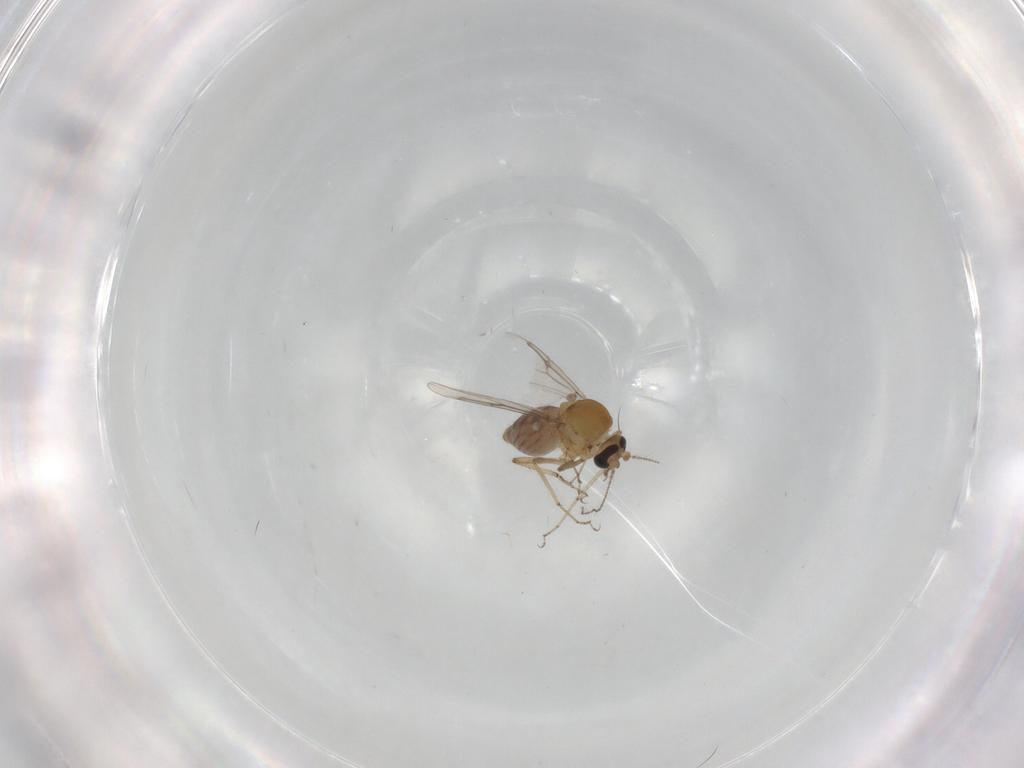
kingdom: Animalia
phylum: Arthropoda
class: Insecta
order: Diptera
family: Ceratopogonidae
